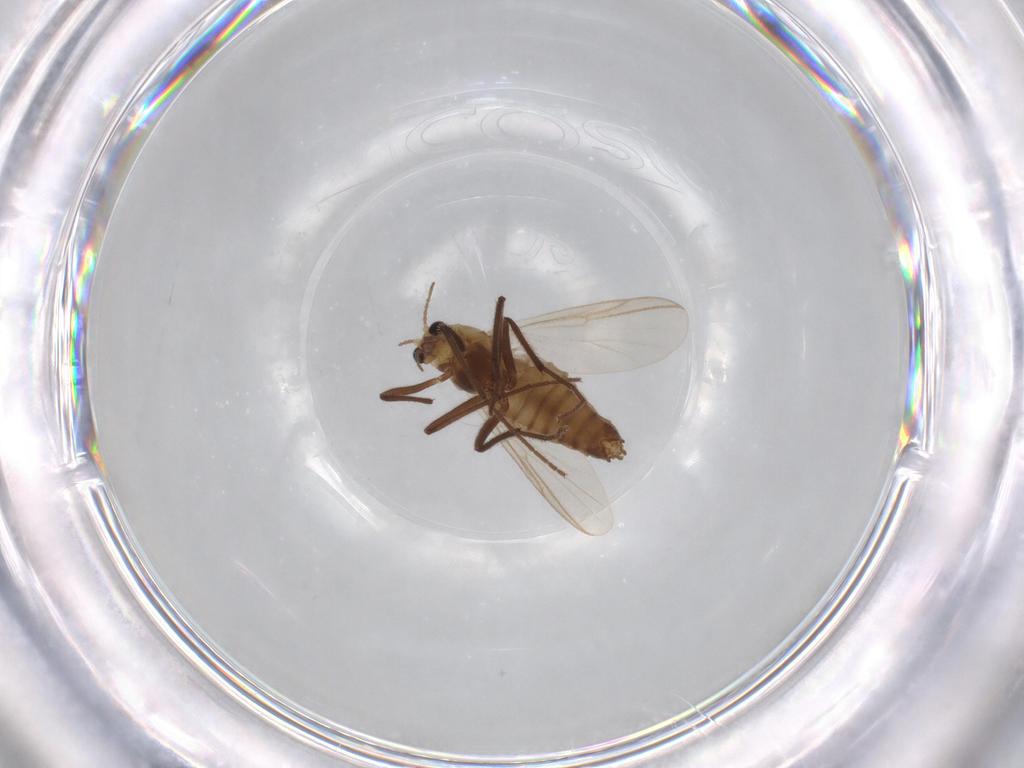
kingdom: Animalia
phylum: Arthropoda
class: Insecta
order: Diptera
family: Chironomidae
